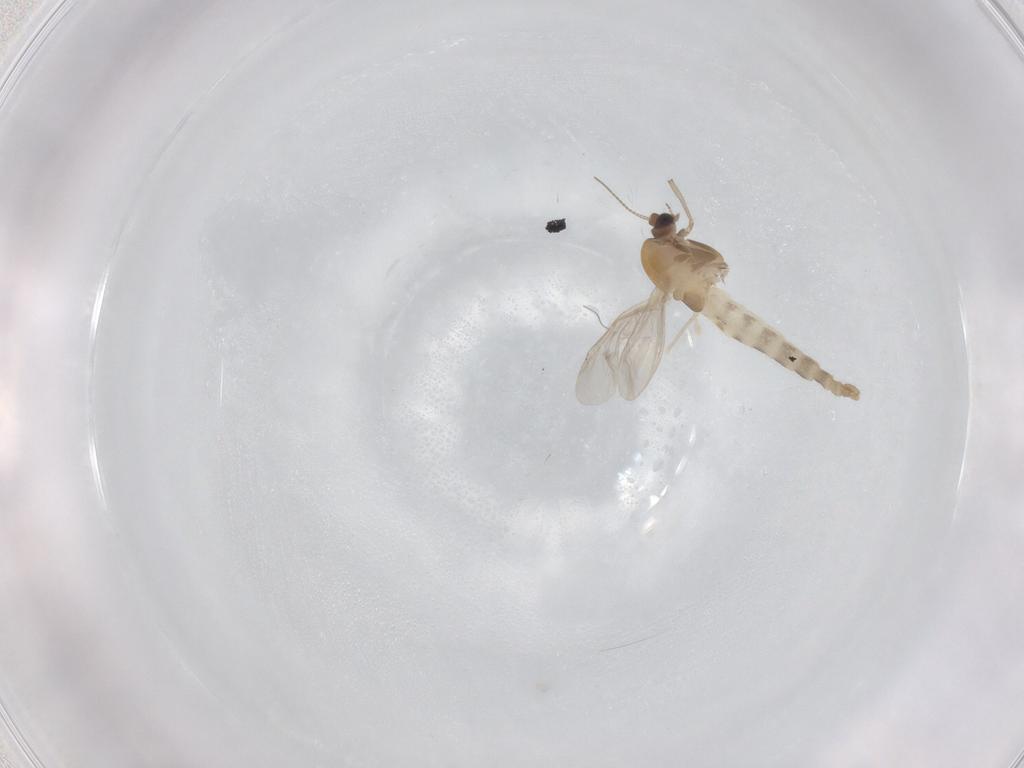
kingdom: Animalia
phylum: Arthropoda
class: Insecta
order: Diptera
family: Chironomidae
